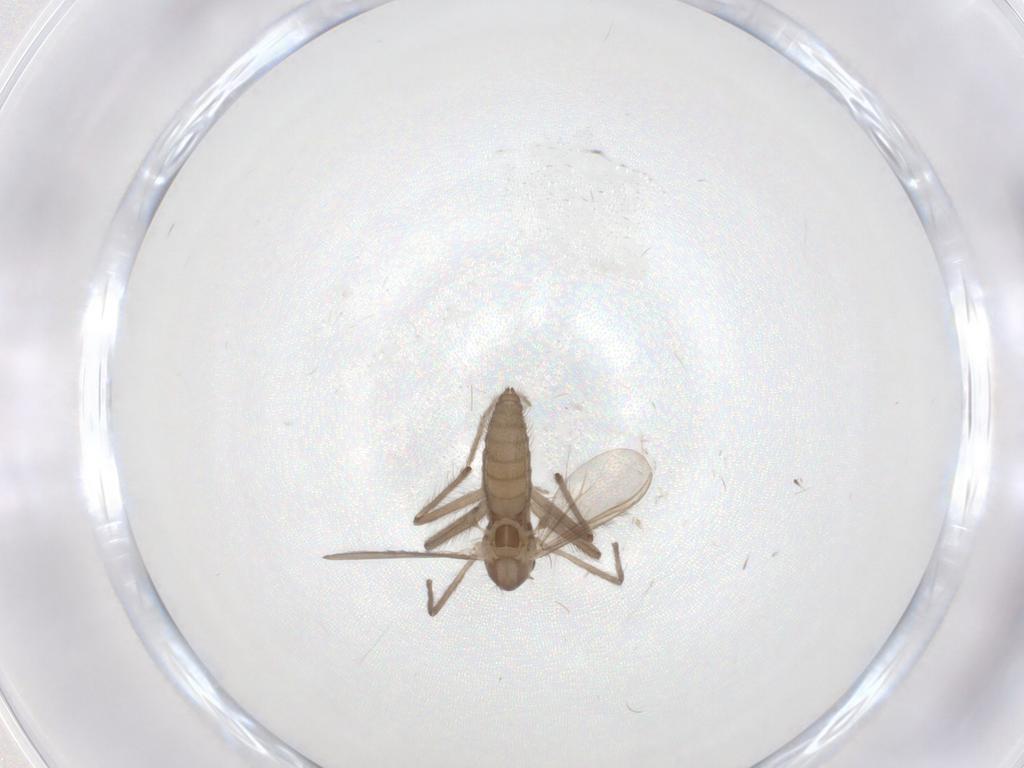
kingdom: Animalia
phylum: Arthropoda
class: Insecta
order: Diptera
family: Chironomidae
